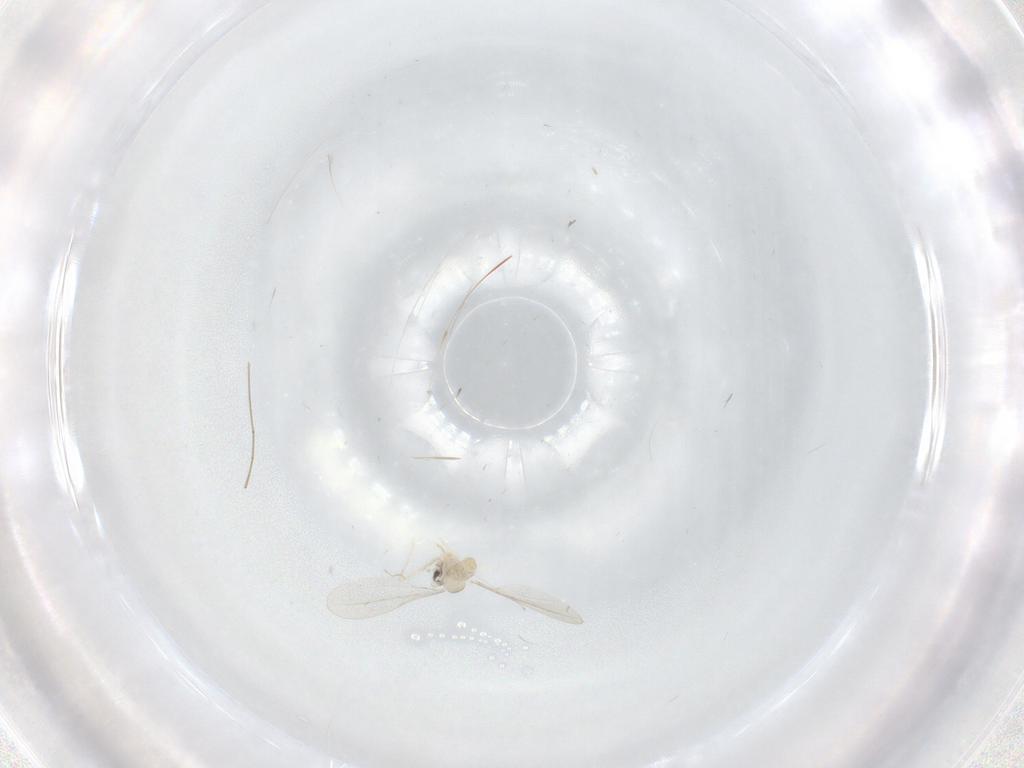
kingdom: Animalia
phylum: Arthropoda
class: Insecta
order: Diptera
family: Cecidomyiidae
